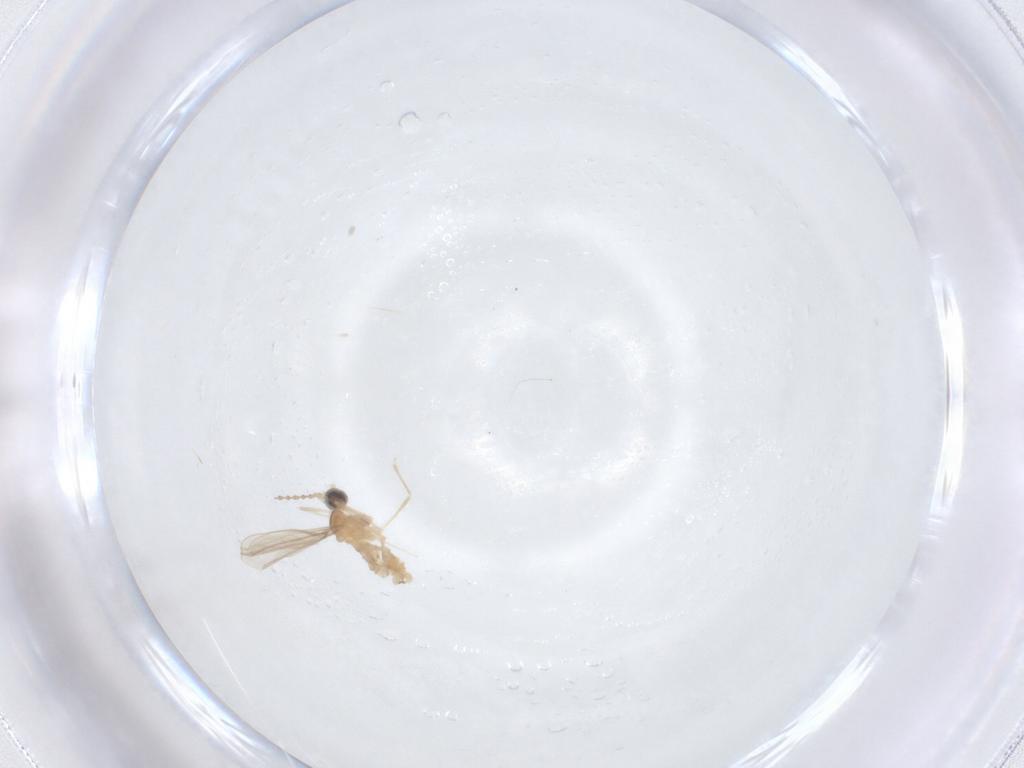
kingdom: Animalia
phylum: Arthropoda
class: Insecta
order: Diptera
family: Cecidomyiidae
